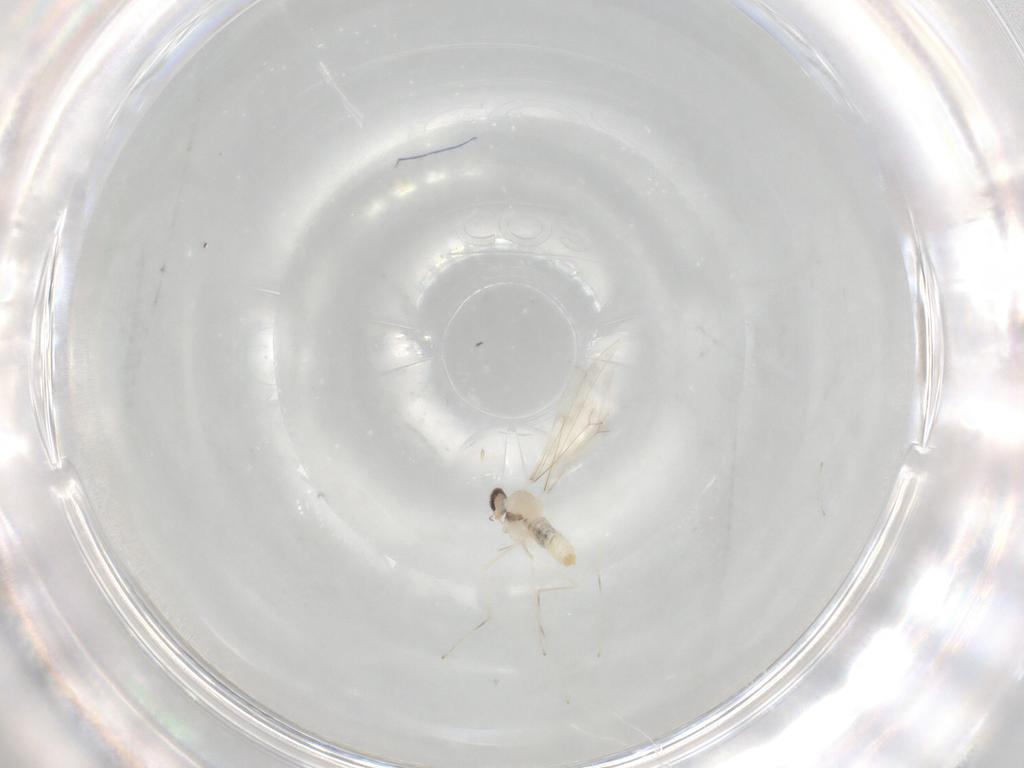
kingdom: Animalia
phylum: Arthropoda
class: Insecta
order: Diptera
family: Cecidomyiidae
